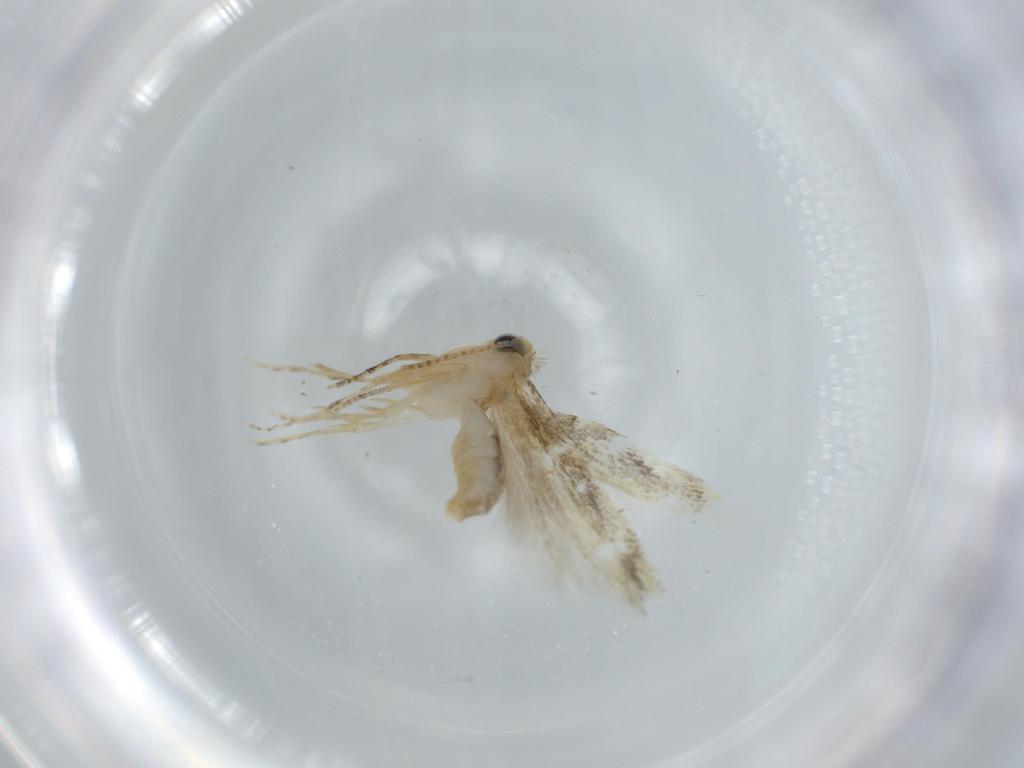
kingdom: Animalia
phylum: Arthropoda
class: Insecta
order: Lepidoptera
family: Bucculatricidae
